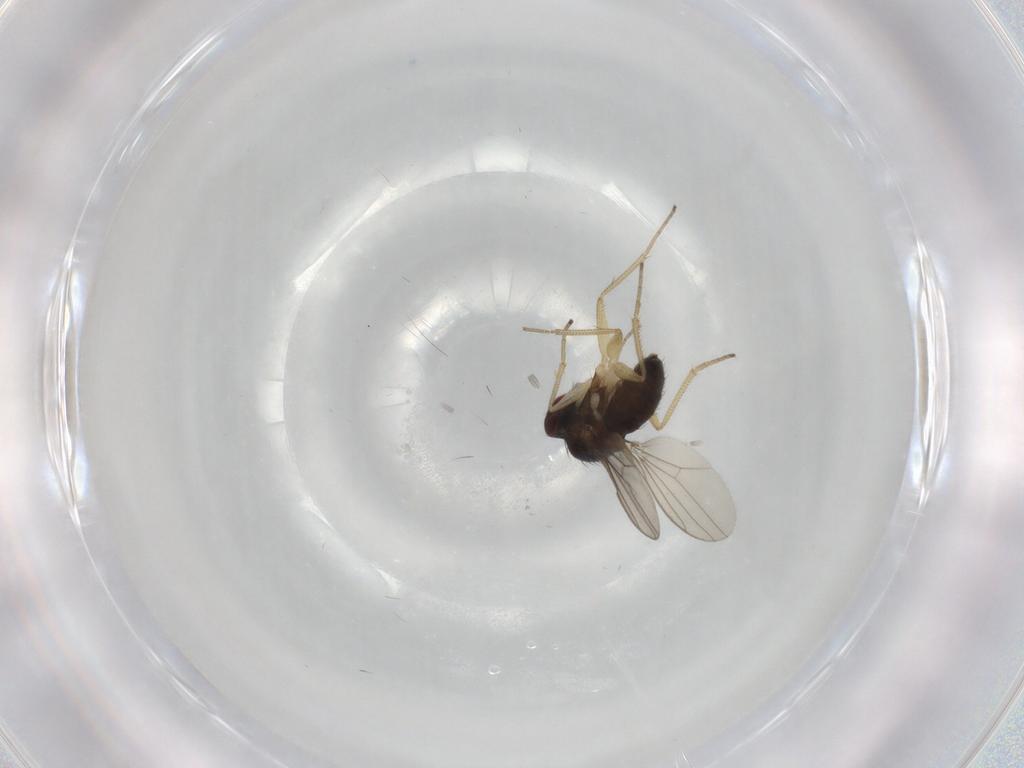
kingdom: Animalia
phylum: Arthropoda
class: Insecta
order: Diptera
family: Dolichopodidae
